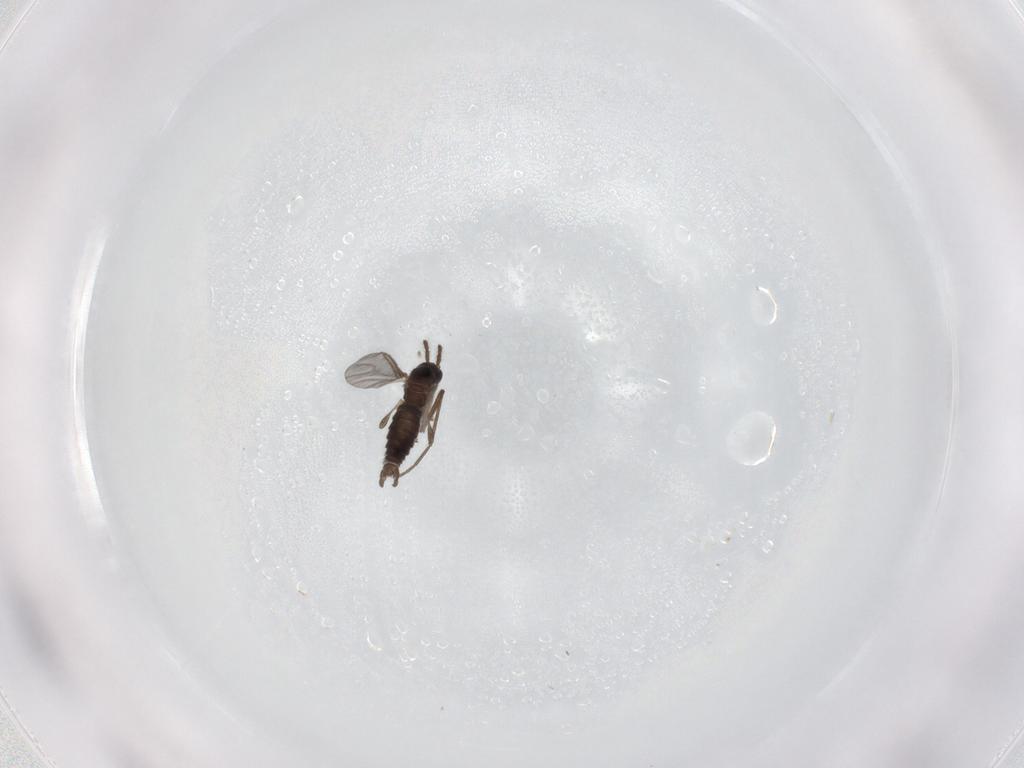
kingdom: Animalia
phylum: Arthropoda
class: Insecta
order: Diptera
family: Sciaridae
